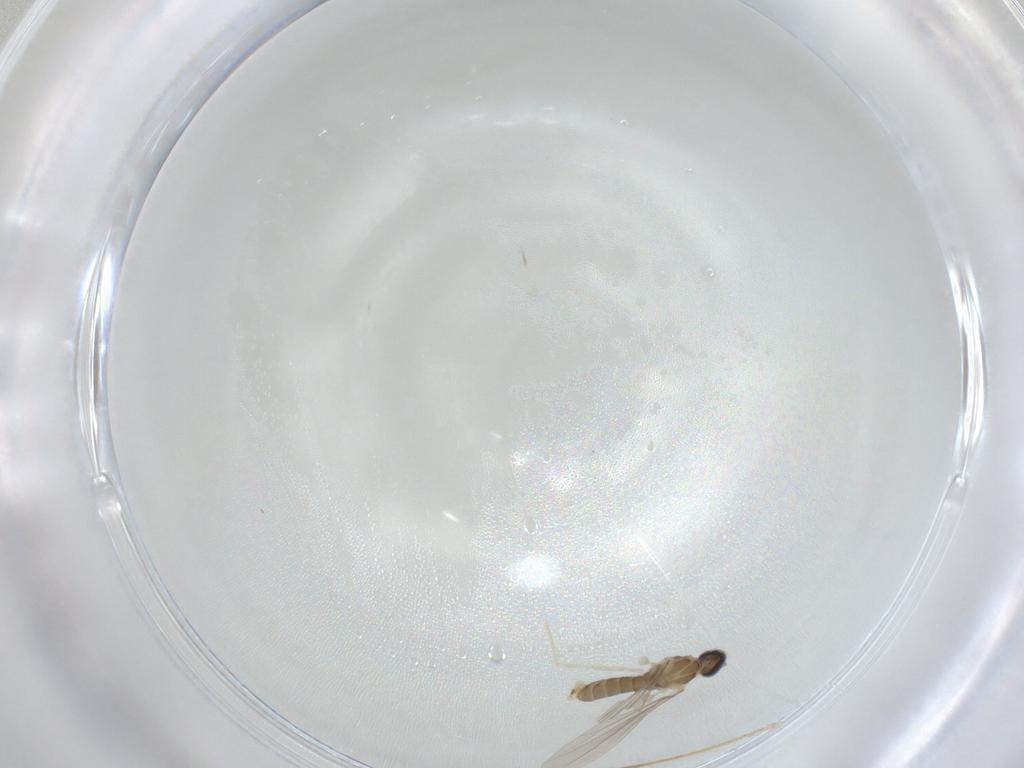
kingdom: Animalia
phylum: Arthropoda
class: Insecta
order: Diptera
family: Cecidomyiidae
